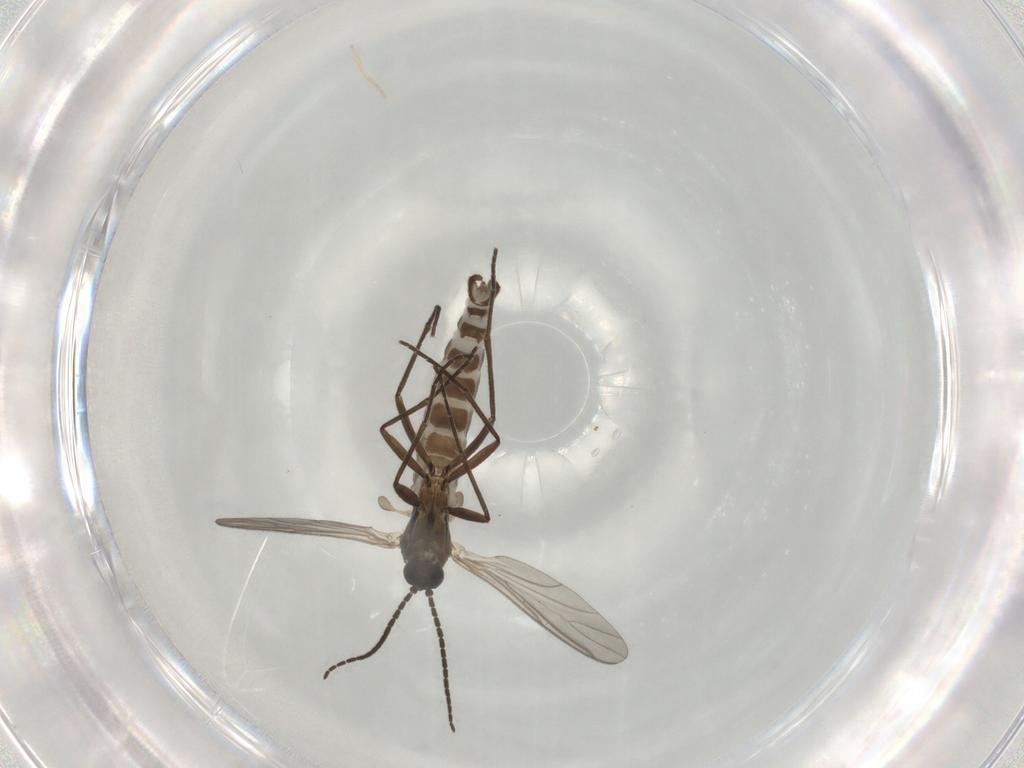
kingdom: Animalia
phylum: Arthropoda
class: Insecta
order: Diptera
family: Sciaridae
